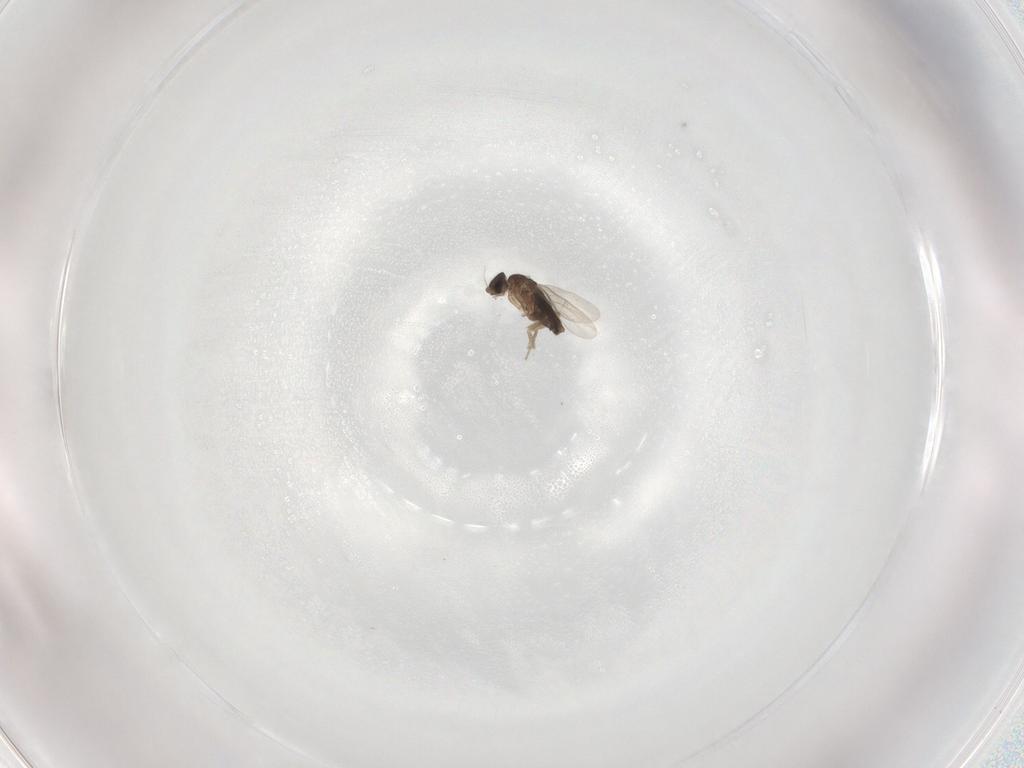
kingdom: Animalia
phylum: Arthropoda
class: Insecta
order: Diptera
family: Phoridae
